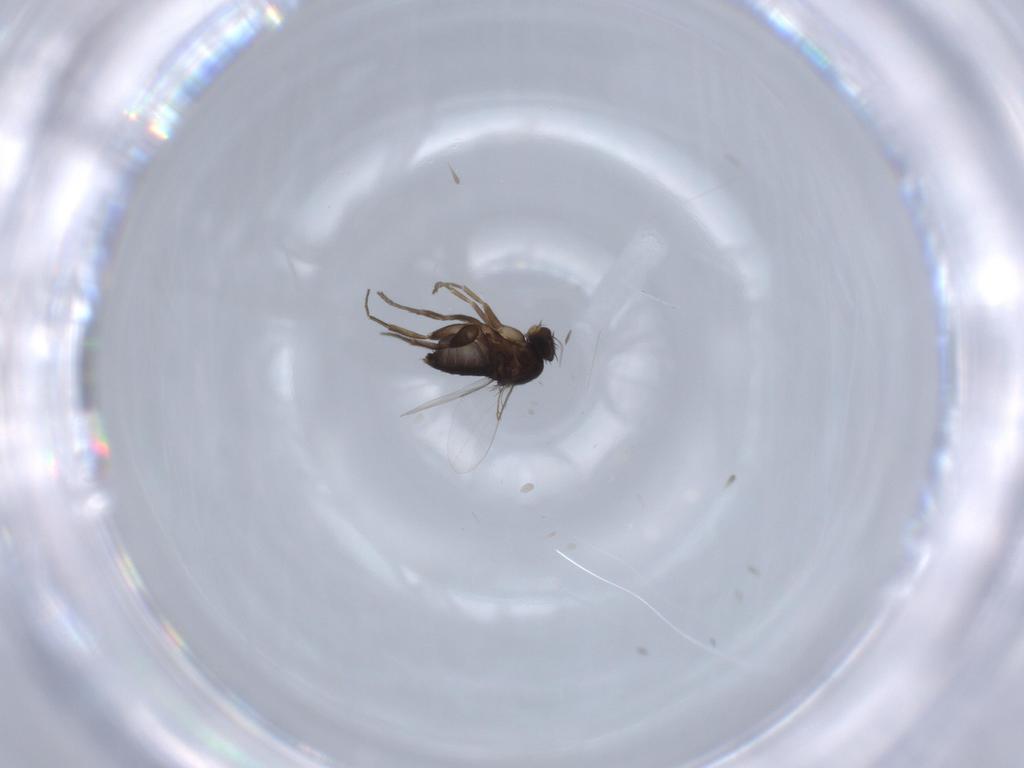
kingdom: Animalia
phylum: Arthropoda
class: Insecta
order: Diptera
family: Phoridae
